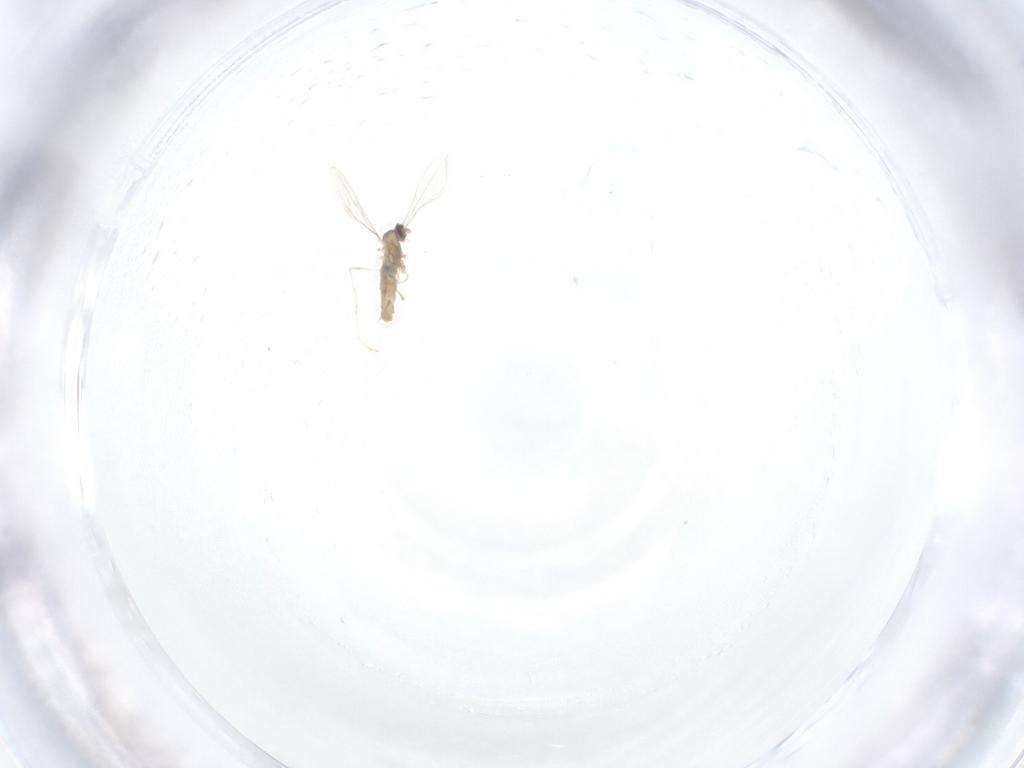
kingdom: Animalia
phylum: Arthropoda
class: Insecta
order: Diptera
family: Cecidomyiidae
